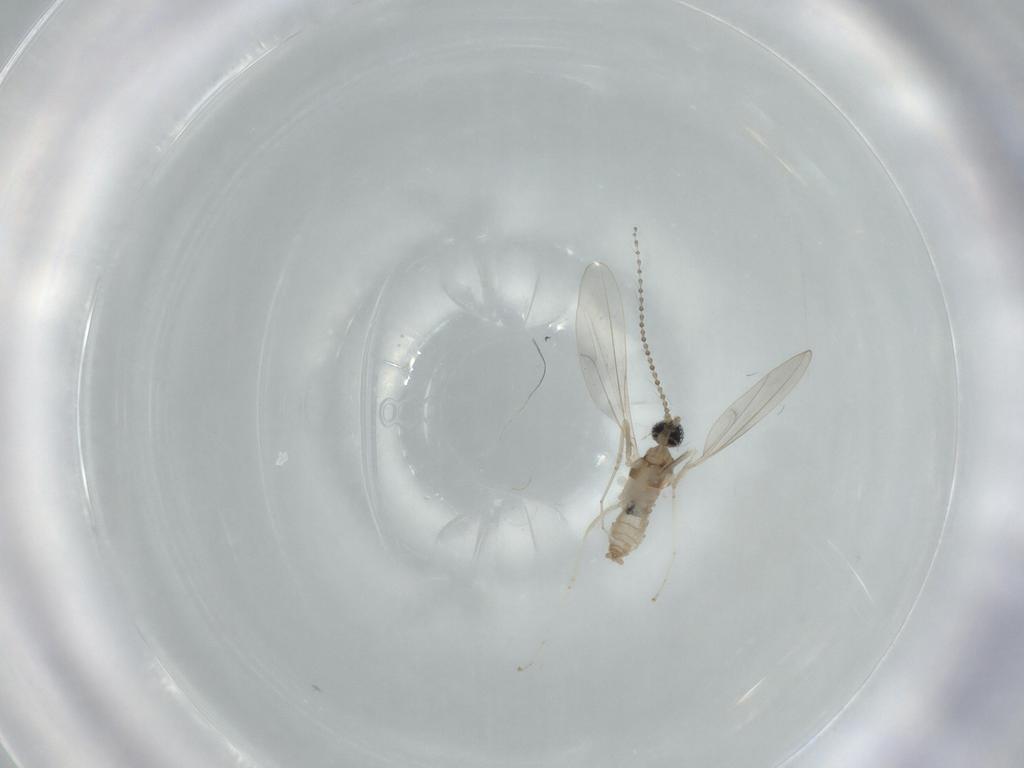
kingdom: Animalia
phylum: Arthropoda
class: Insecta
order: Diptera
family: Cecidomyiidae
